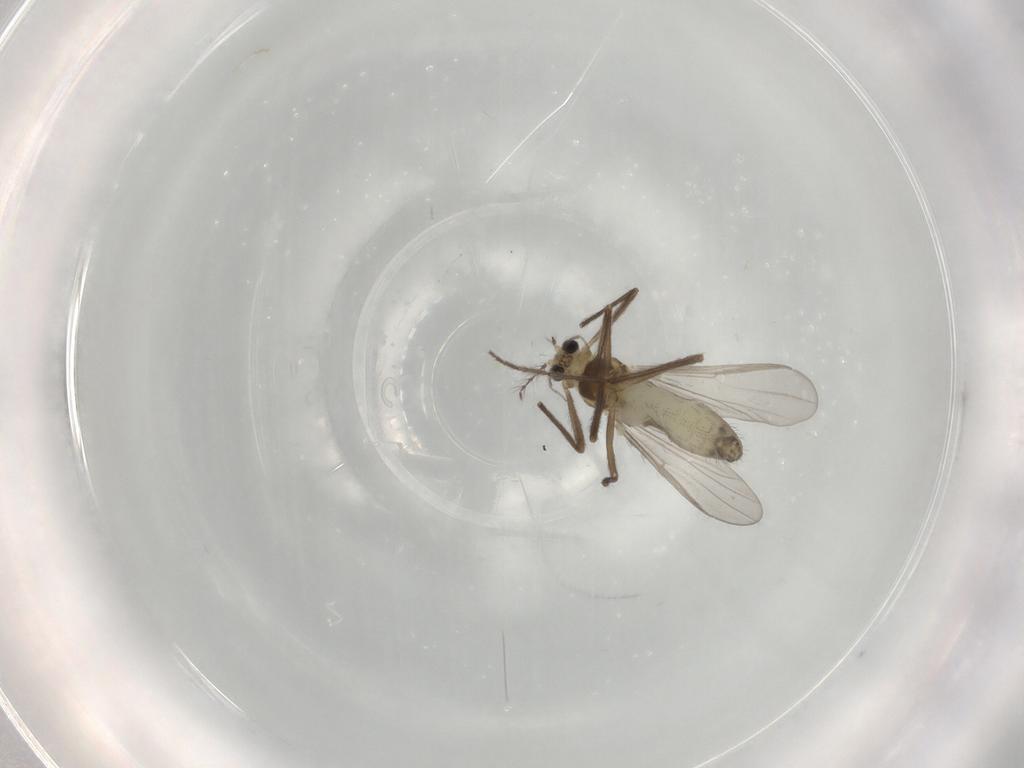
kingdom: Animalia
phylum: Arthropoda
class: Insecta
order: Diptera
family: Chironomidae
